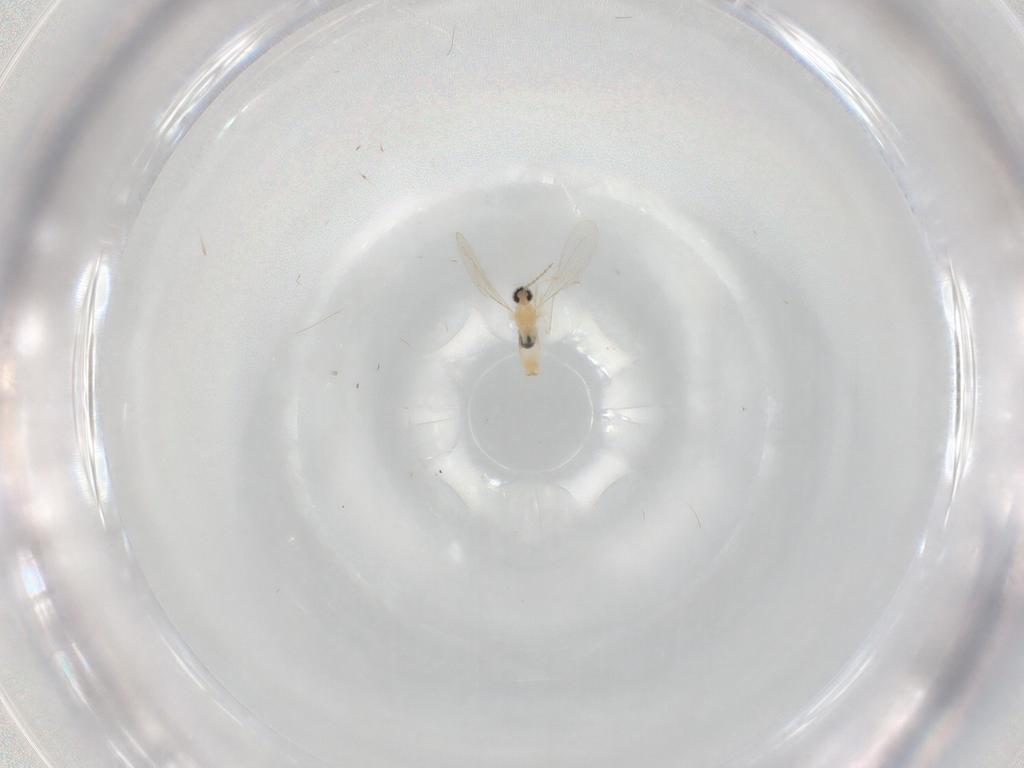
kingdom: Animalia
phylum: Arthropoda
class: Insecta
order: Diptera
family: Cecidomyiidae
